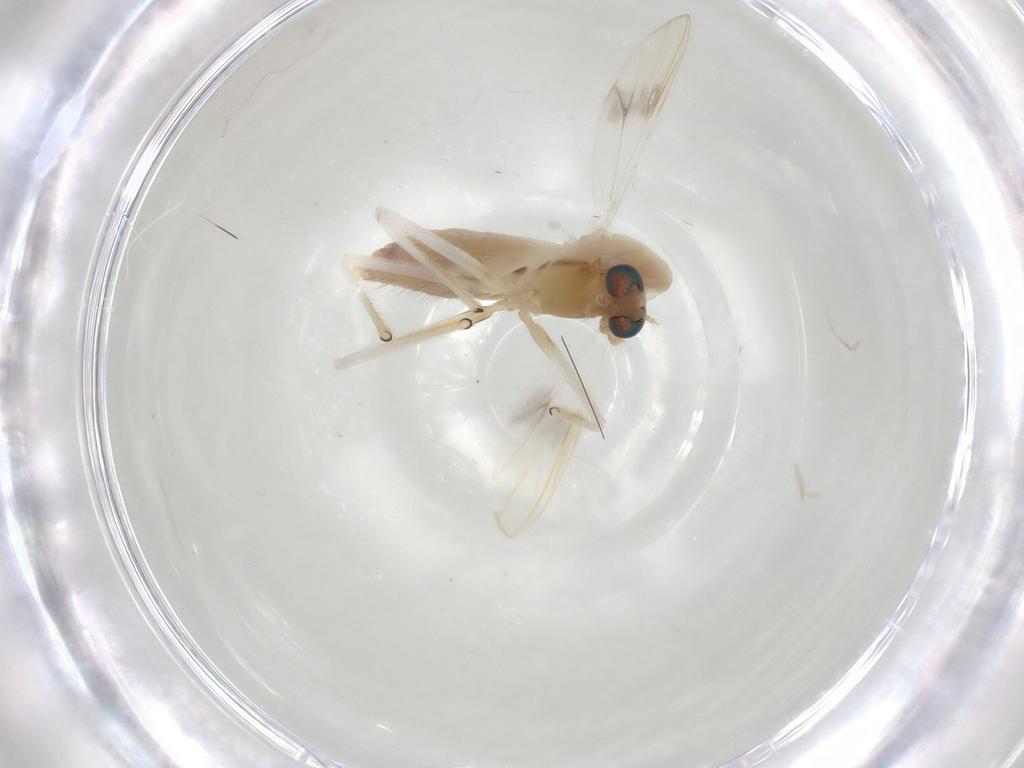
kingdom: Animalia
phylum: Arthropoda
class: Insecta
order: Diptera
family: Chironomidae
